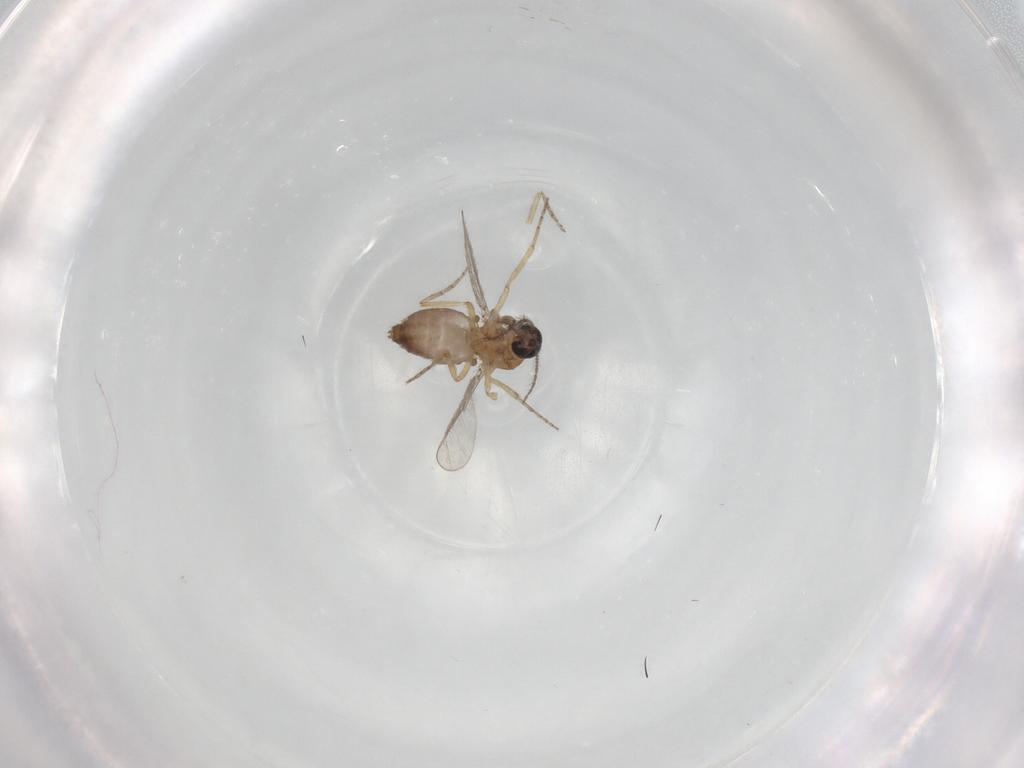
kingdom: Animalia
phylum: Arthropoda
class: Insecta
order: Diptera
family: Ceratopogonidae
